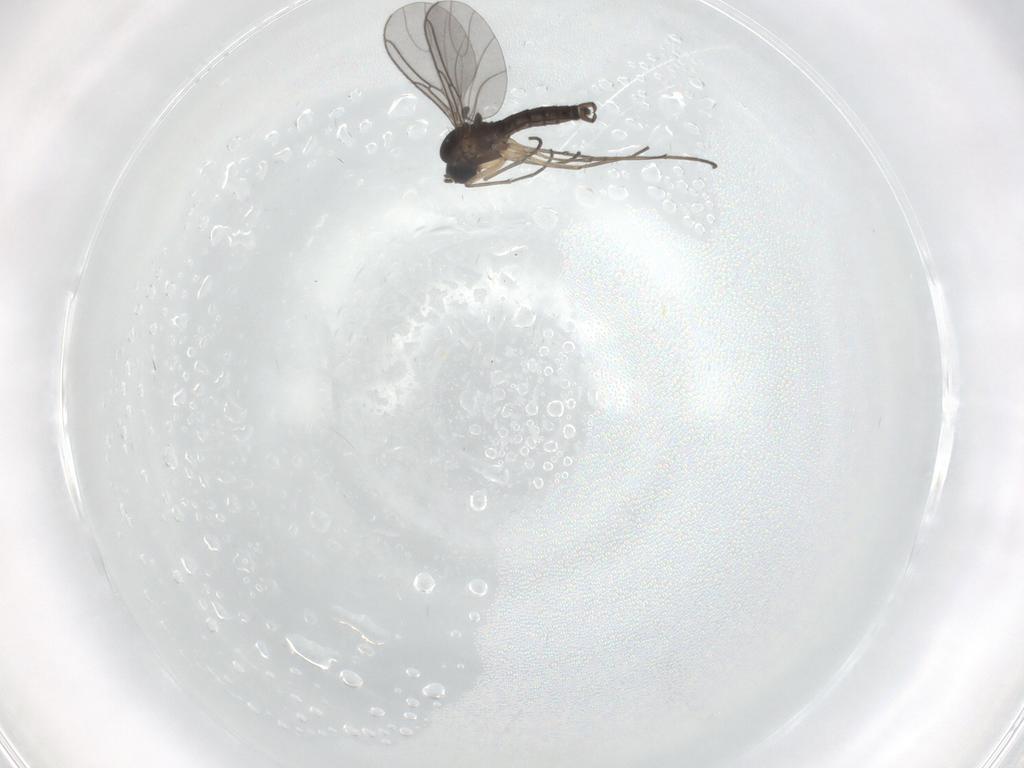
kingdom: Animalia
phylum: Arthropoda
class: Insecta
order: Diptera
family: Sciaridae
